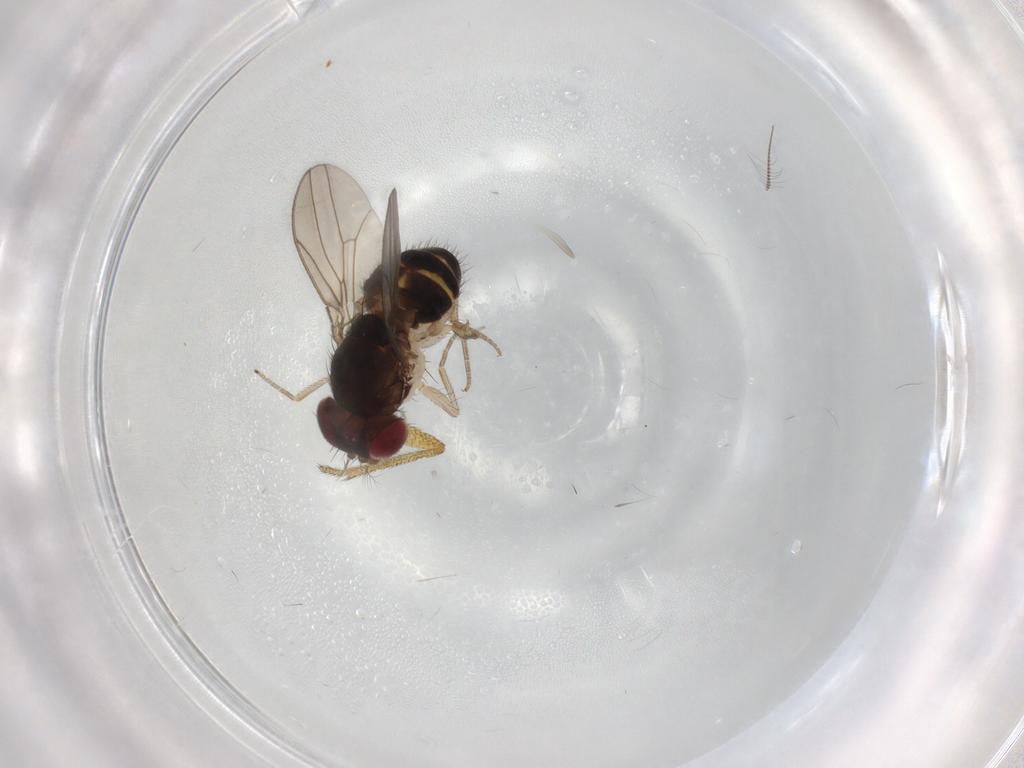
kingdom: Animalia
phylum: Arthropoda
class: Insecta
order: Diptera
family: Drosophilidae
